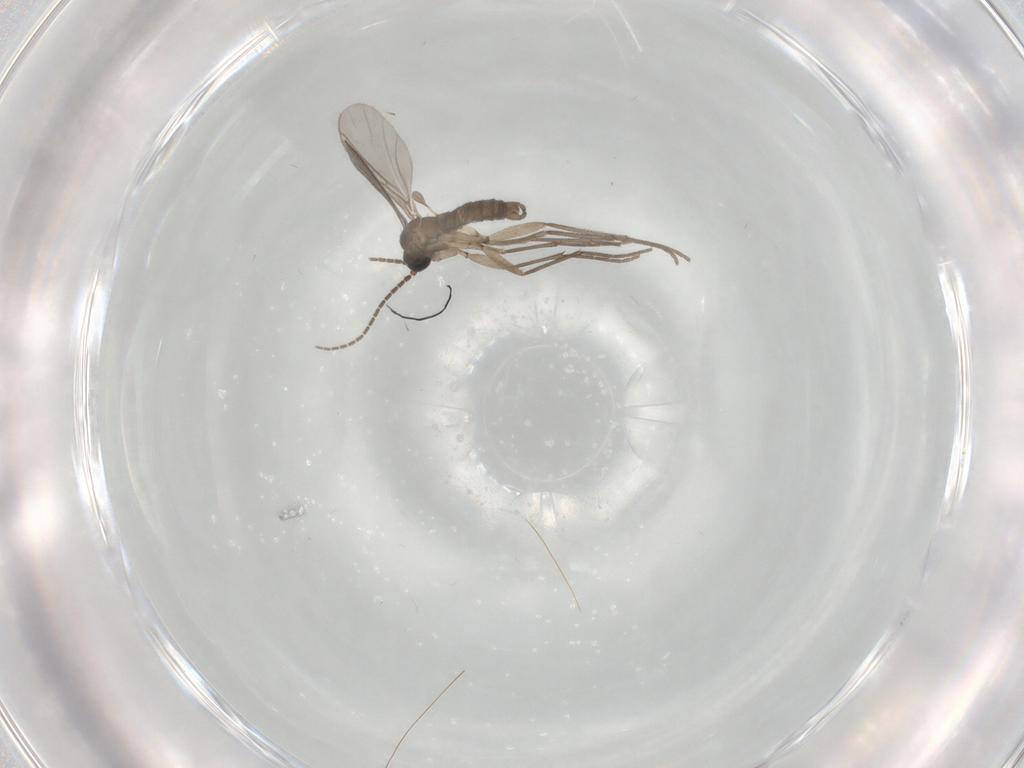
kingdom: Animalia
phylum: Arthropoda
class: Insecta
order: Diptera
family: Sciaridae
